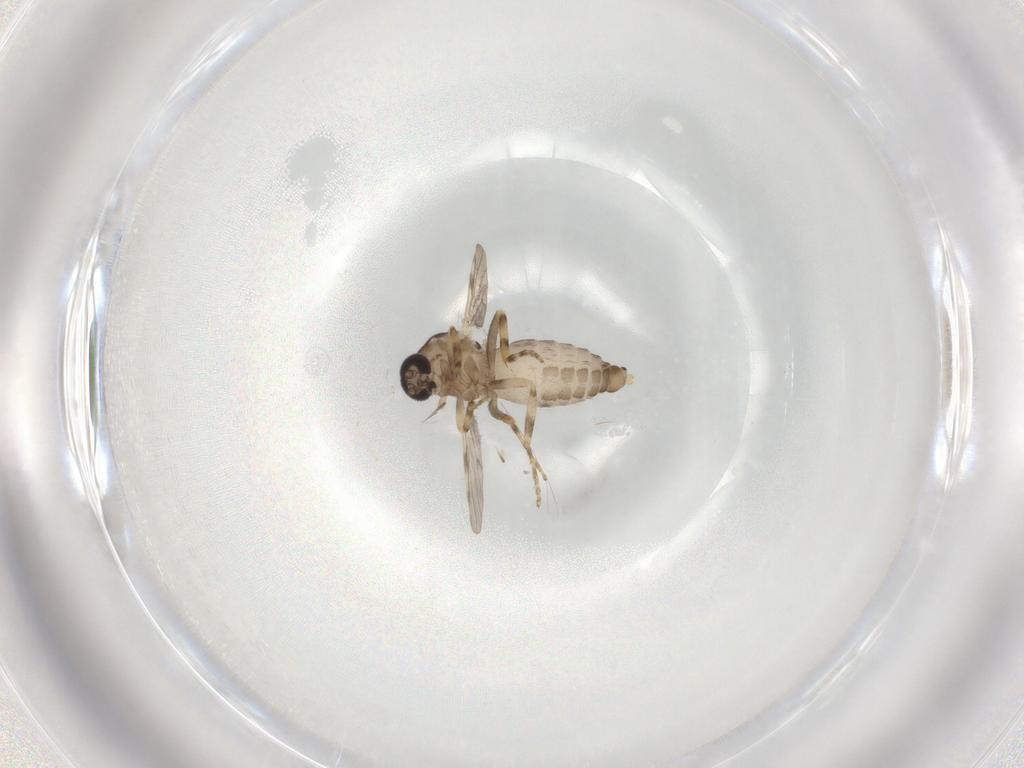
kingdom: Animalia
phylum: Arthropoda
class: Insecta
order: Diptera
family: Ceratopogonidae
